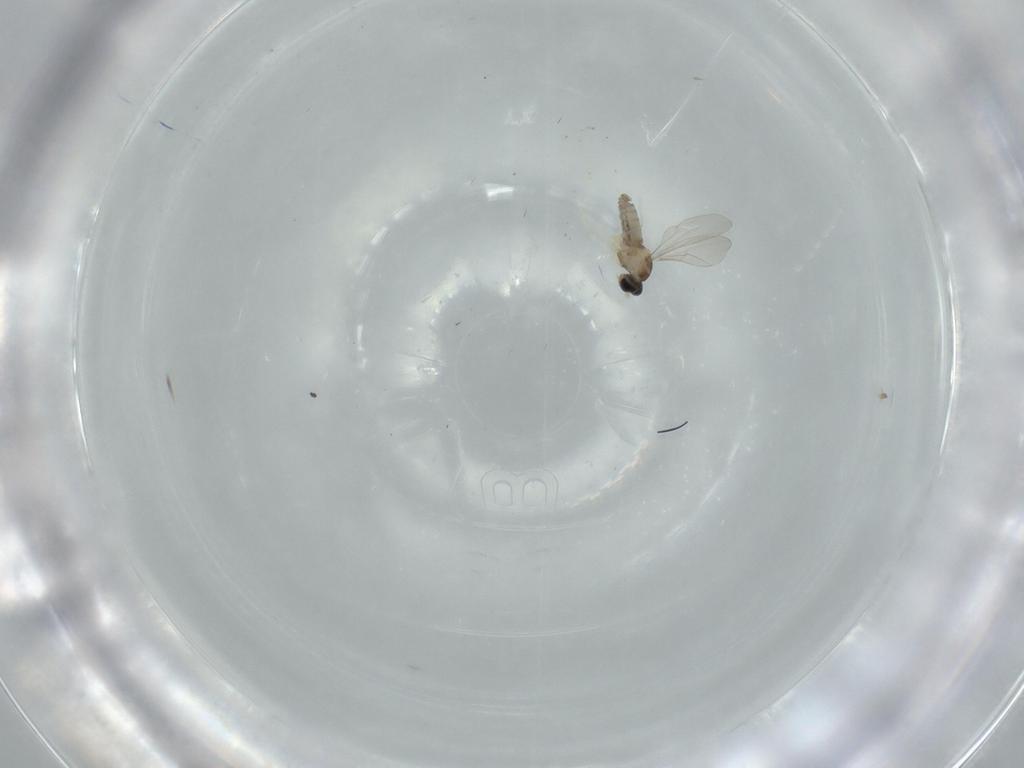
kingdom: Animalia
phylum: Arthropoda
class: Insecta
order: Diptera
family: Cecidomyiidae
